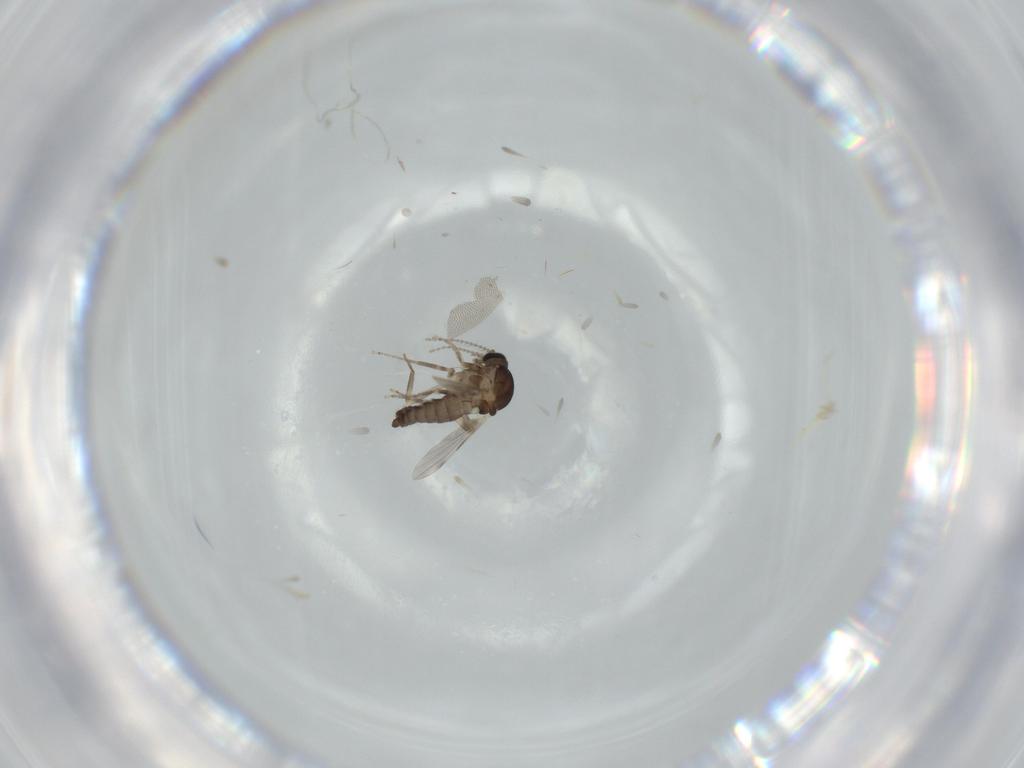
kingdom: Animalia
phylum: Arthropoda
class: Insecta
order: Diptera
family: Ceratopogonidae
